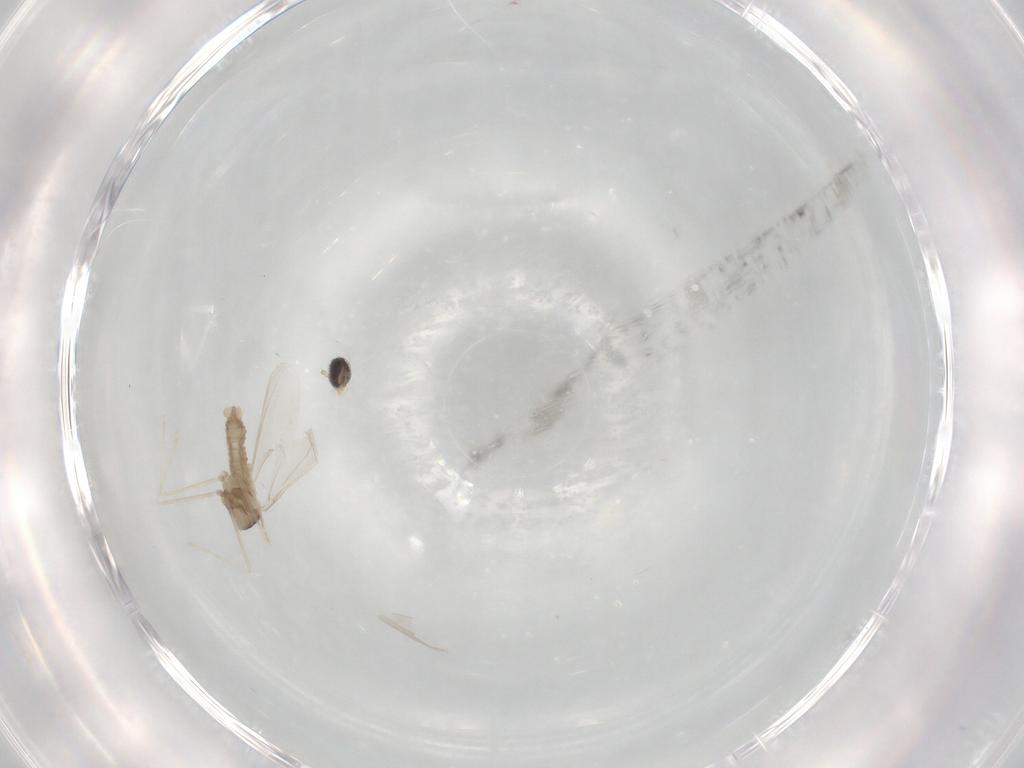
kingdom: Animalia
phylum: Arthropoda
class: Insecta
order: Diptera
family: Cecidomyiidae
